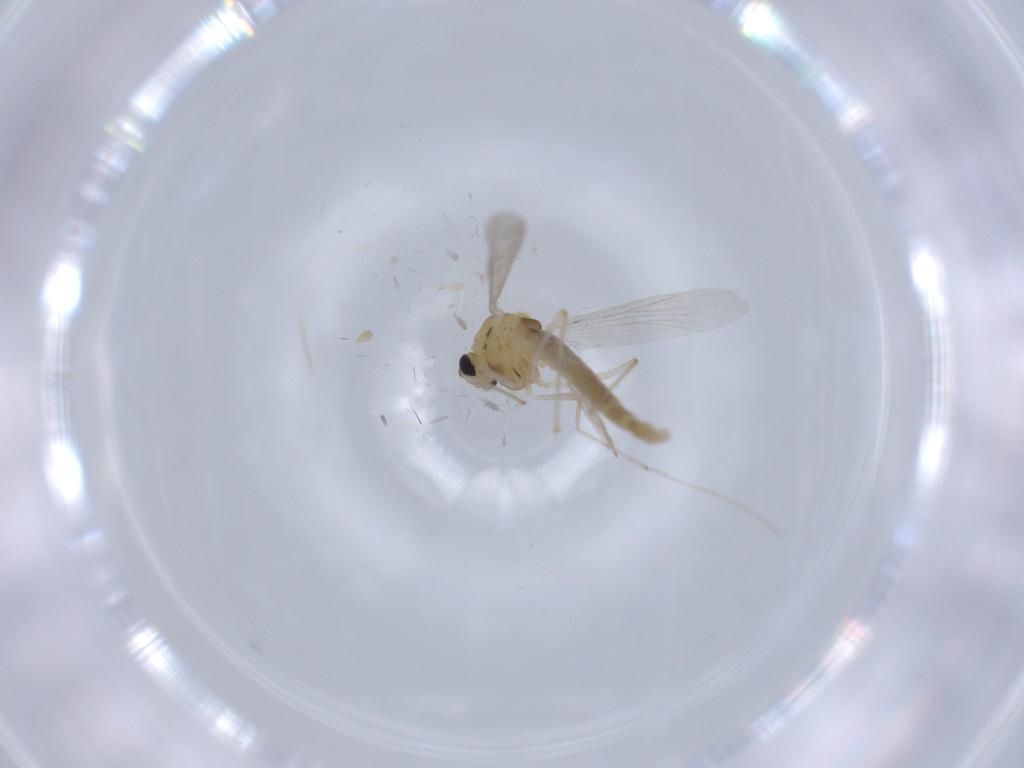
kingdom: Animalia
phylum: Arthropoda
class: Insecta
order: Diptera
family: Chironomidae
